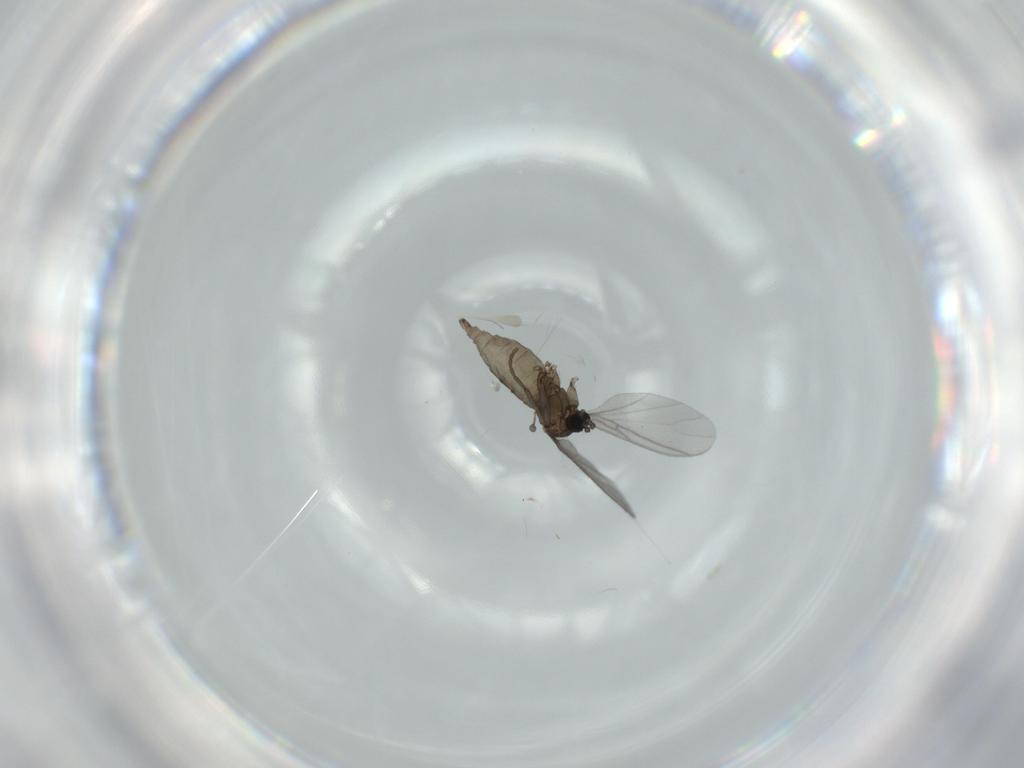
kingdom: Animalia
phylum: Arthropoda
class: Insecta
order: Diptera
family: Sciaridae
